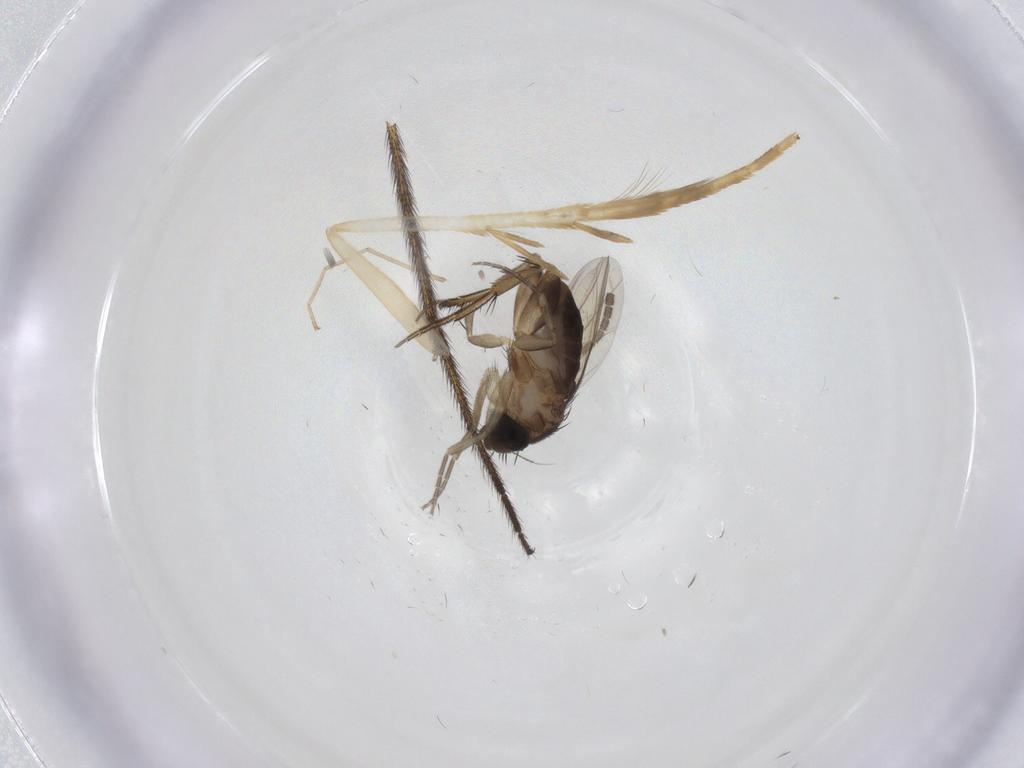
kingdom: Animalia
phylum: Arthropoda
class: Insecta
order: Diptera
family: Phoridae
